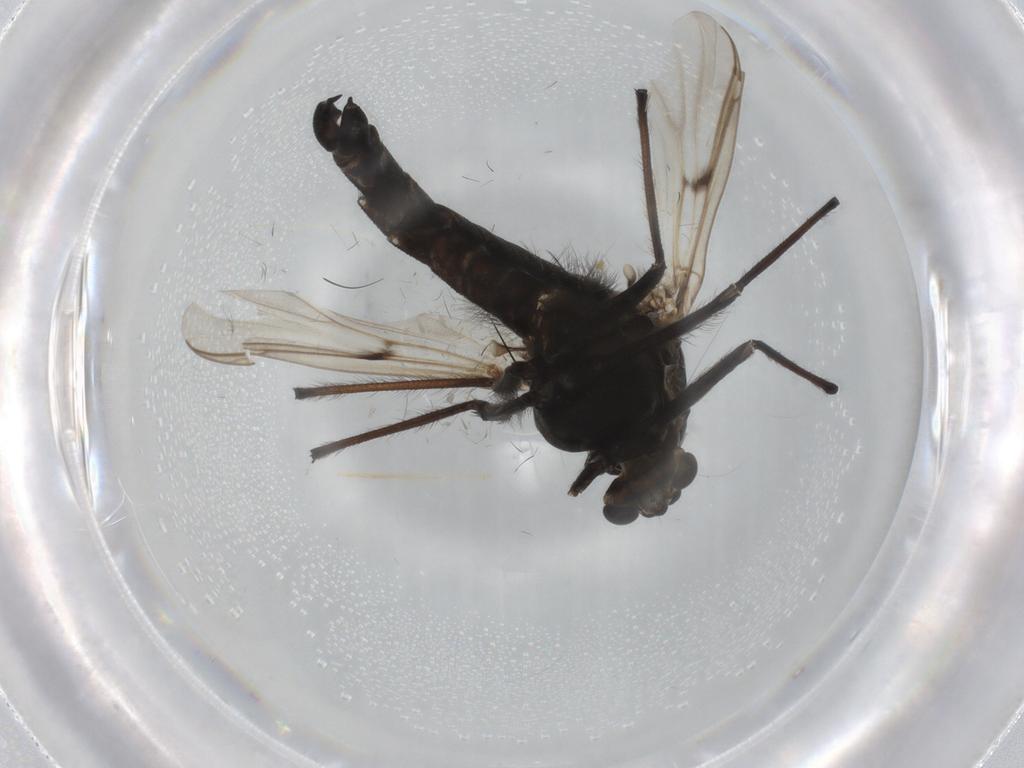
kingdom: Animalia
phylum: Arthropoda
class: Insecta
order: Diptera
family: Chironomidae
